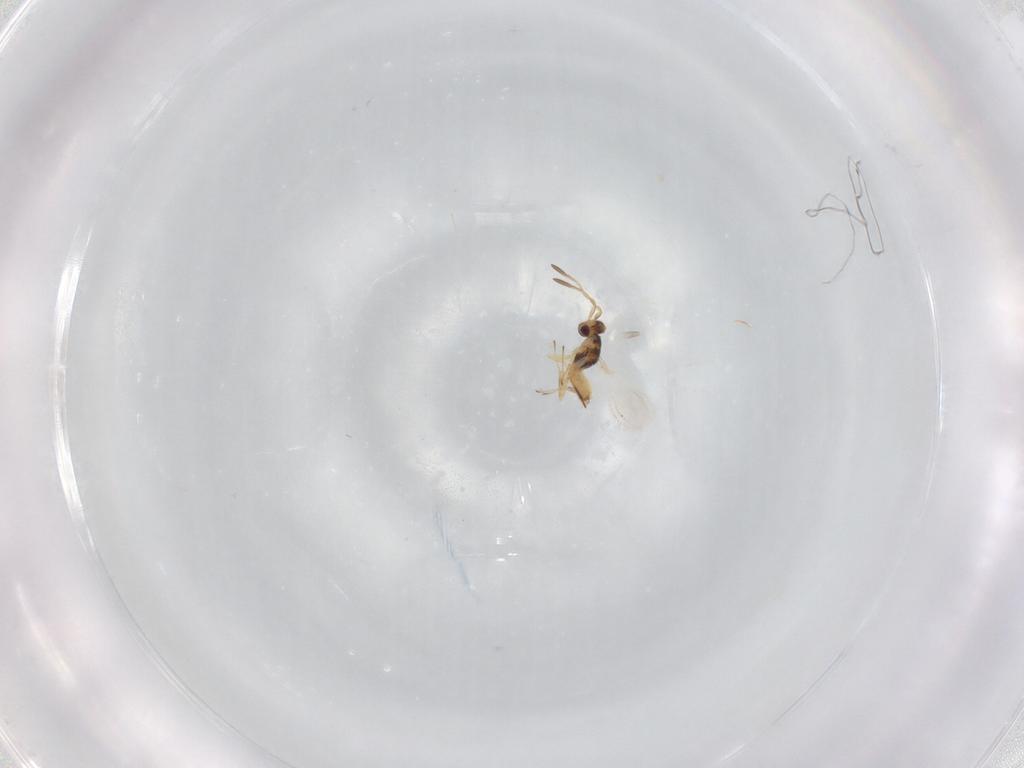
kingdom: Animalia
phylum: Arthropoda
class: Insecta
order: Hymenoptera
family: Mymaridae
